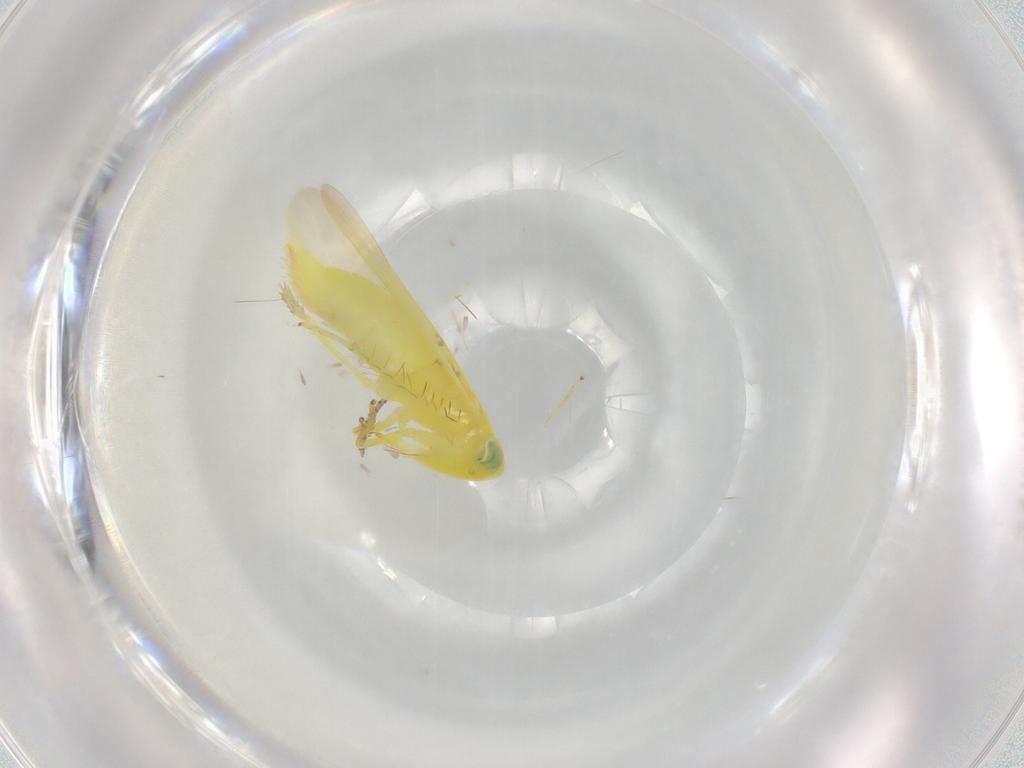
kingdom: Animalia
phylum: Arthropoda
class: Insecta
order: Hemiptera
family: Cicadellidae
